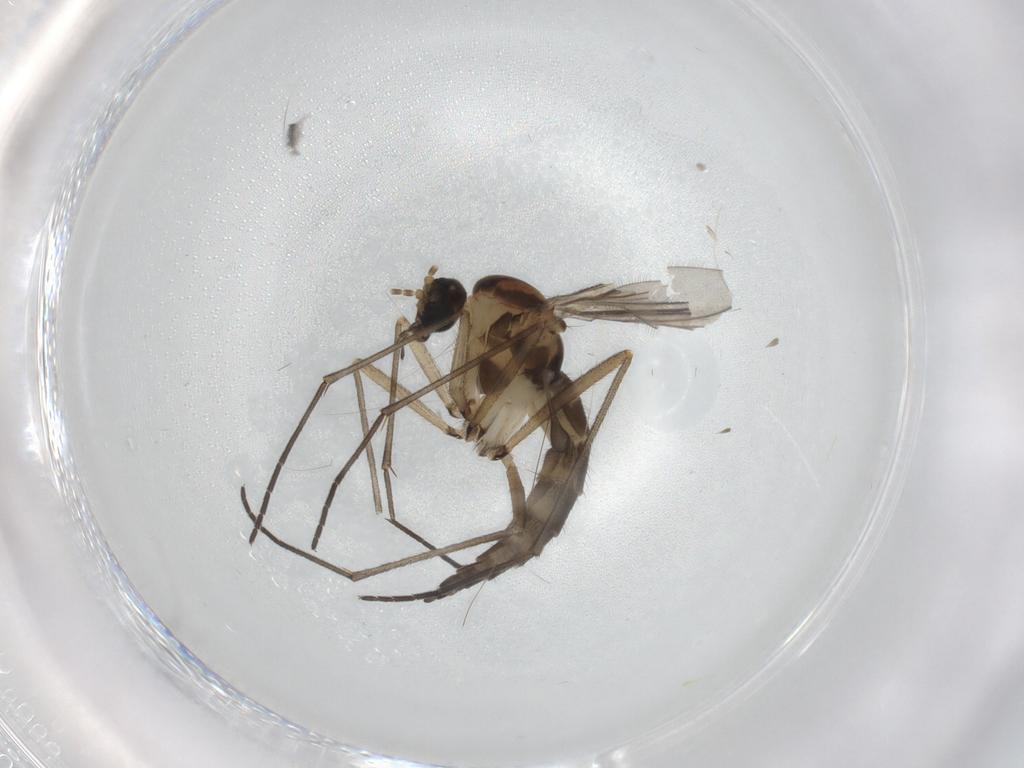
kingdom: Animalia
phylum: Arthropoda
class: Insecta
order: Diptera
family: Sciaridae
